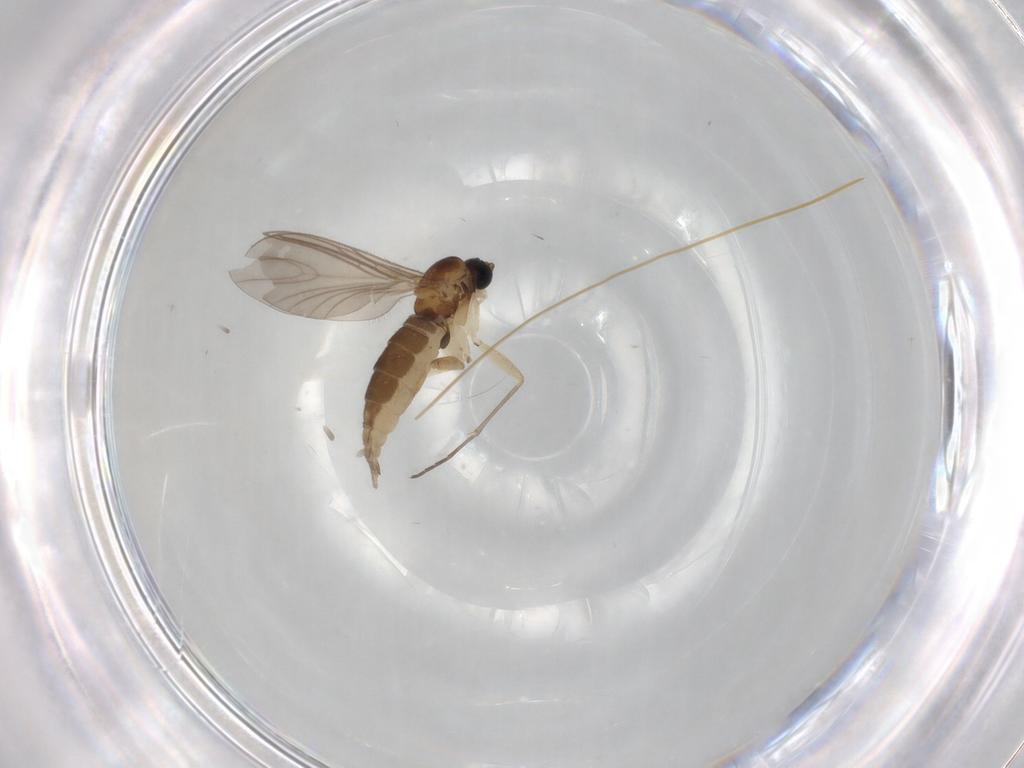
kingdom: Animalia
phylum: Arthropoda
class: Insecta
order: Diptera
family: Sciaridae
